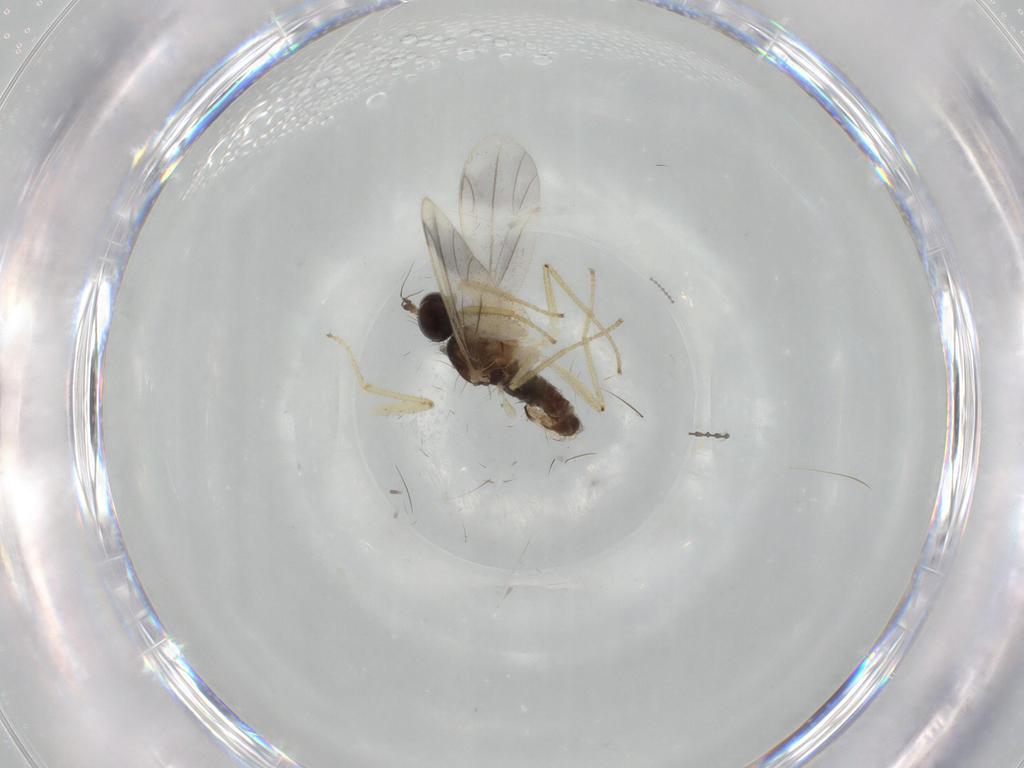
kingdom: Animalia
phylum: Arthropoda
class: Insecta
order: Diptera
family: Empididae
